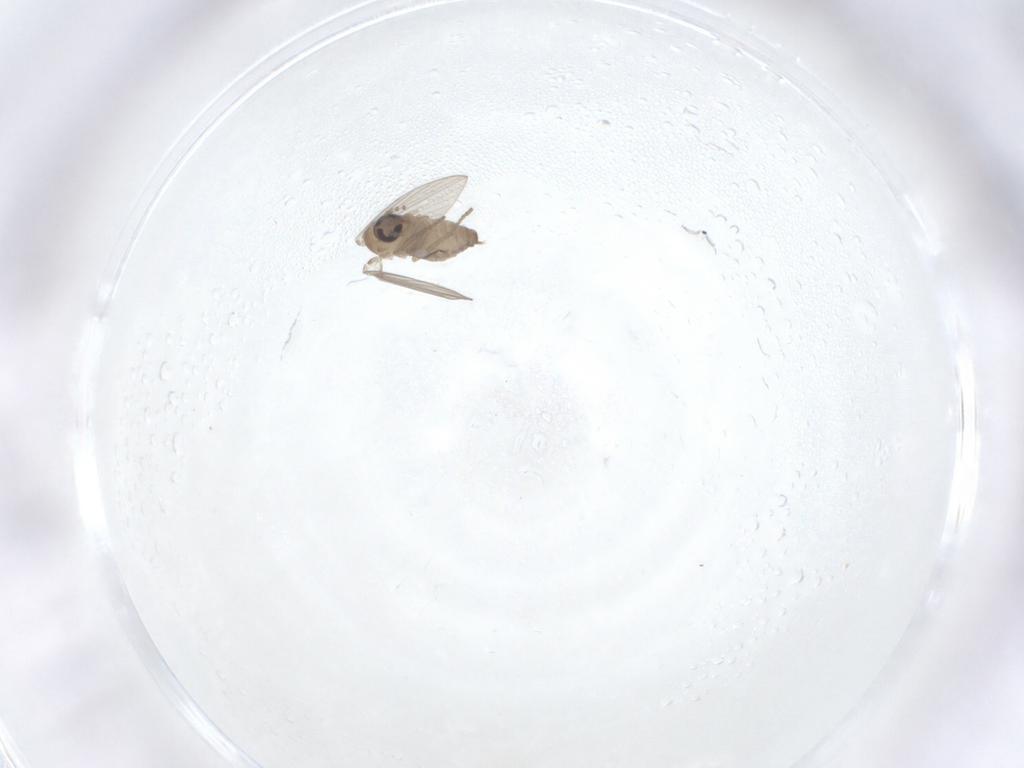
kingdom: Animalia
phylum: Arthropoda
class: Insecta
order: Diptera
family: Psychodidae
